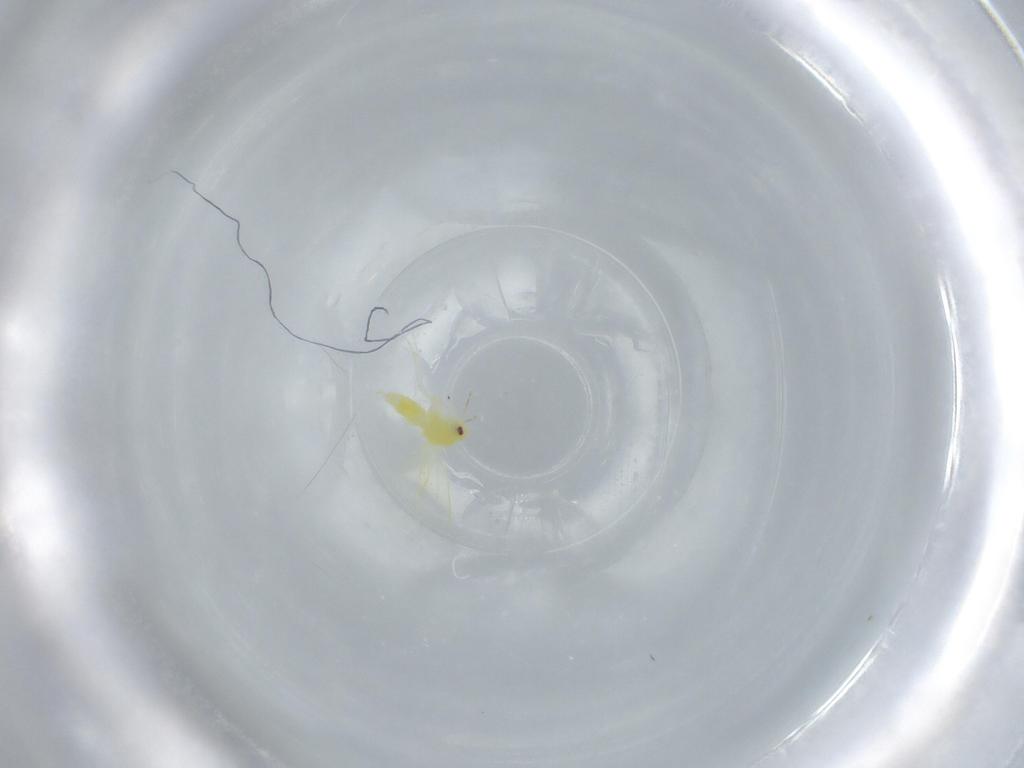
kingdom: Animalia
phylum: Arthropoda
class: Insecta
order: Hemiptera
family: Aleyrodidae
